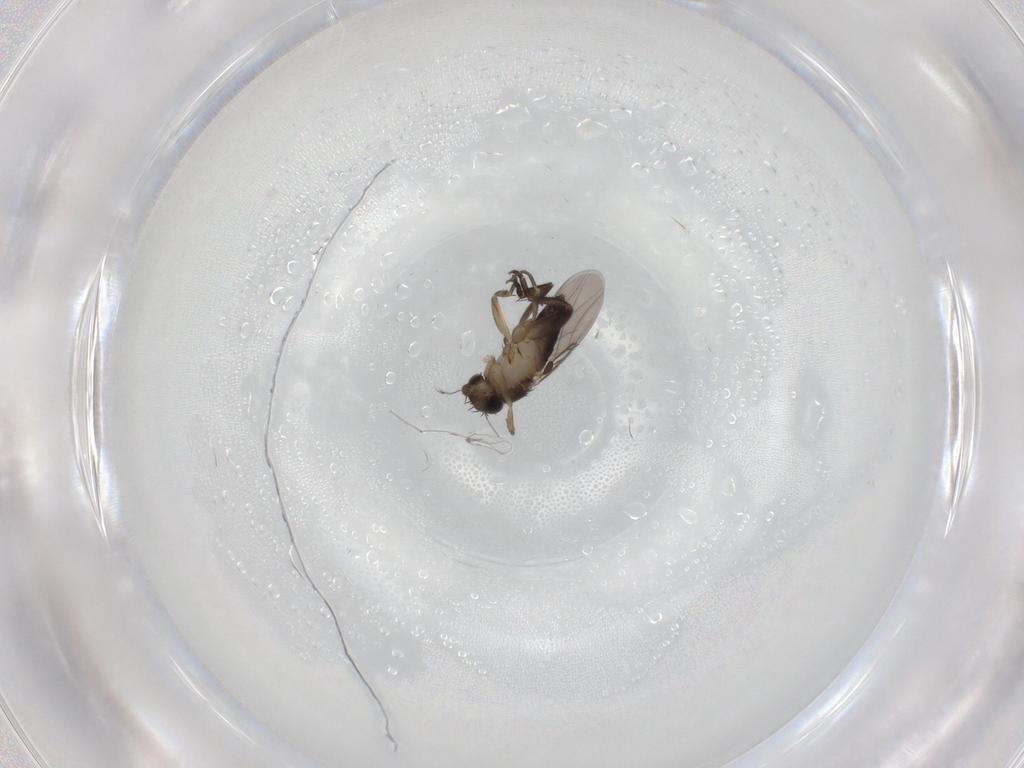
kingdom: Animalia
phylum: Arthropoda
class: Insecta
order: Diptera
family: Phoridae
